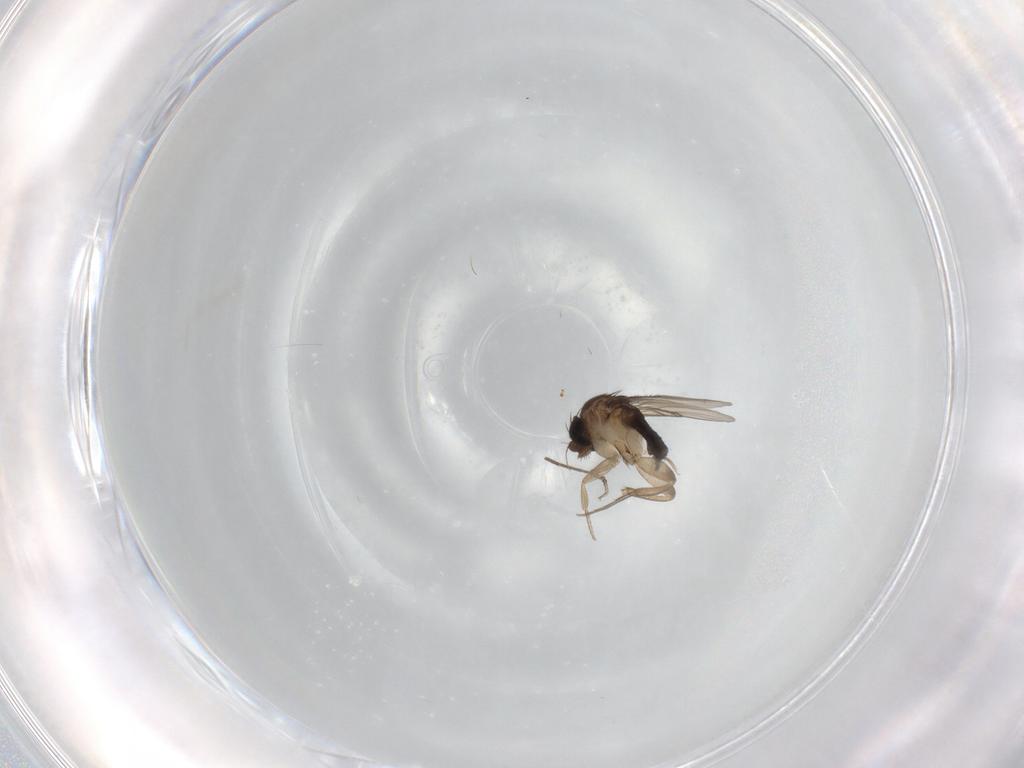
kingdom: Animalia
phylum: Arthropoda
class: Insecta
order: Diptera
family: Phoridae
